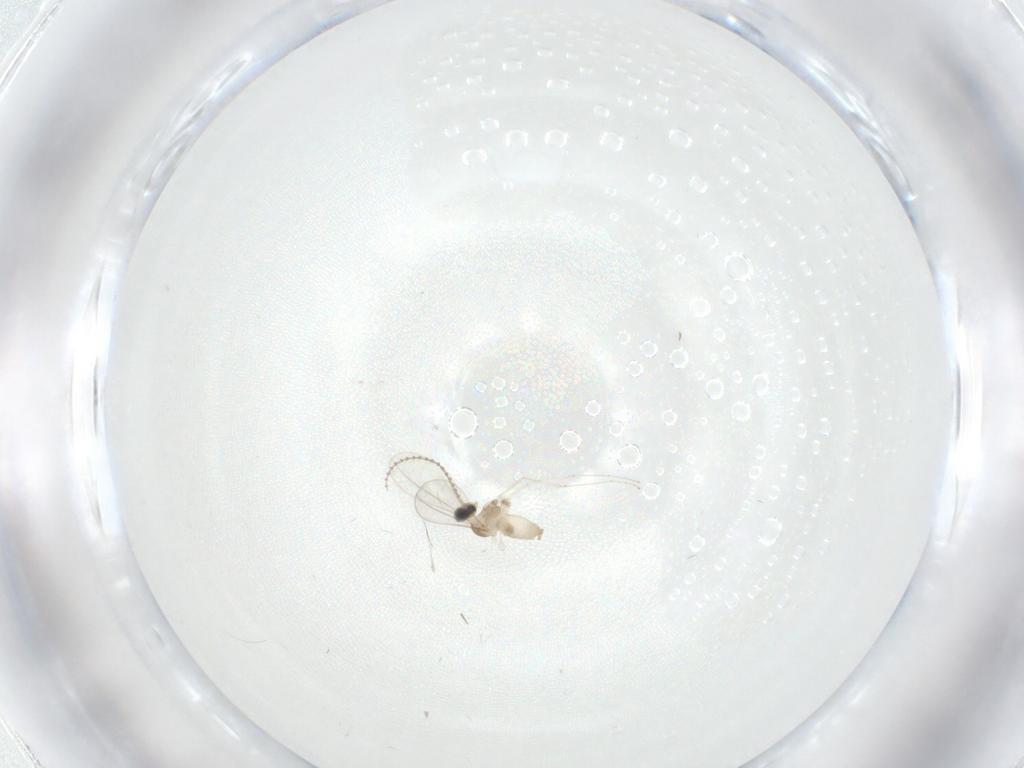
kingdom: Animalia
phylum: Arthropoda
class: Insecta
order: Diptera
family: Cecidomyiidae
